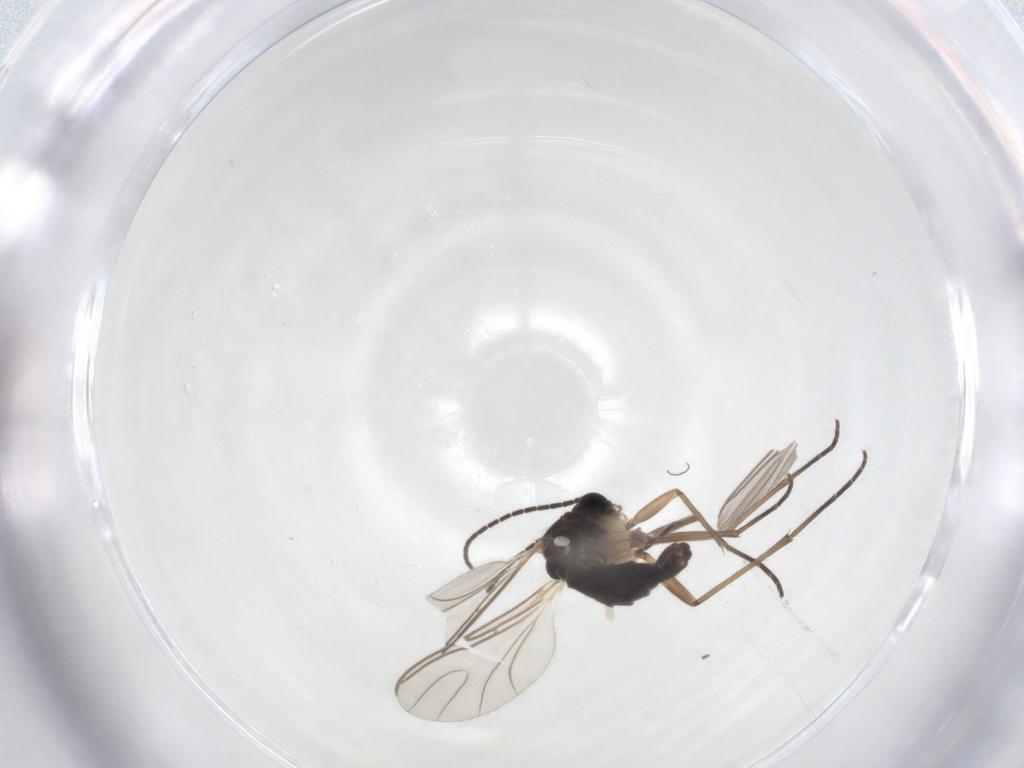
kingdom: Animalia
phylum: Arthropoda
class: Insecta
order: Diptera
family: Sciaridae
